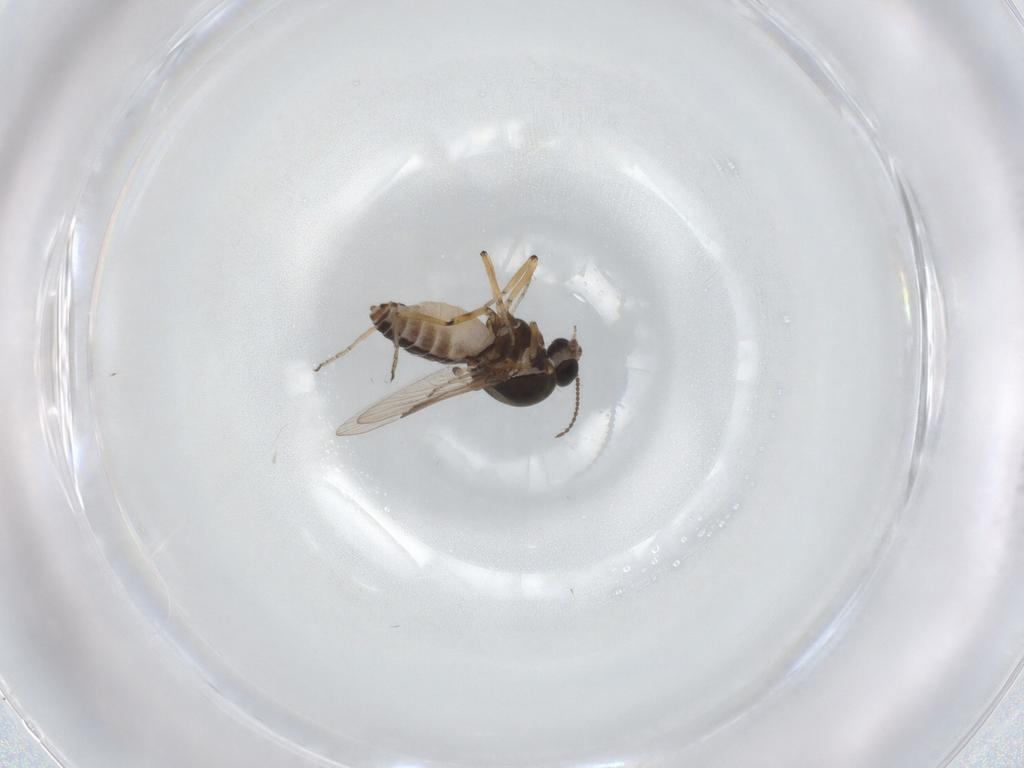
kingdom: Animalia
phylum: Arthropoda
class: Insecta
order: Diptera
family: Ceratopogonidae
